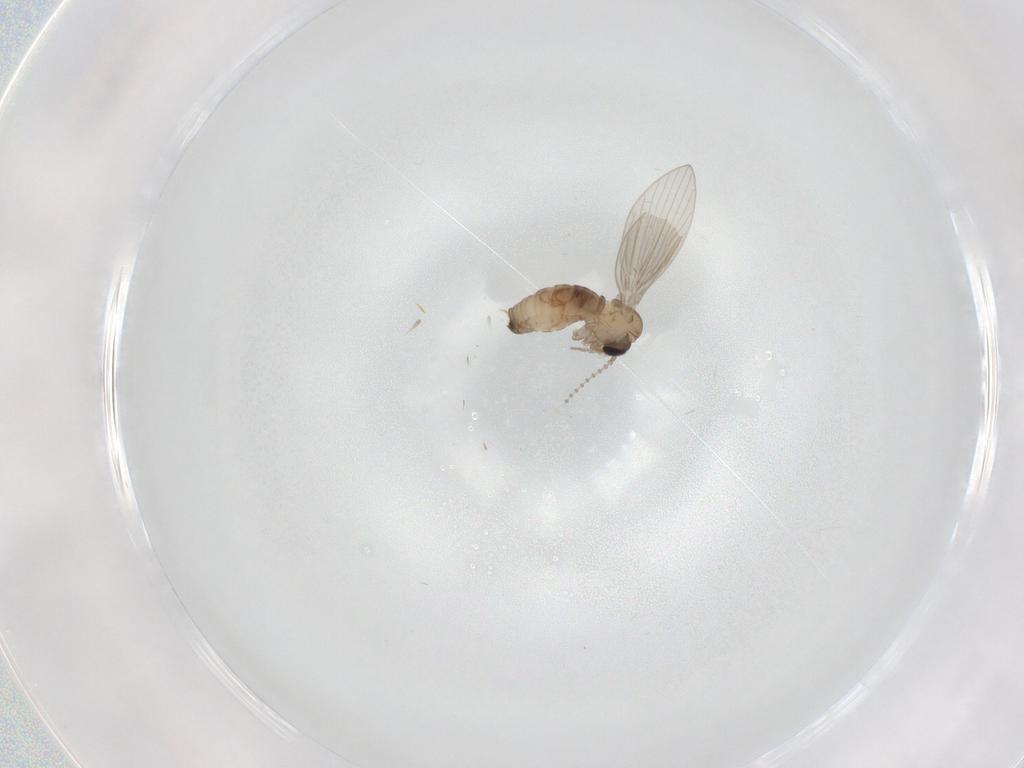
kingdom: Animalia
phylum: Arthropoda
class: Insecta
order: Diptera
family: Psychodidae
